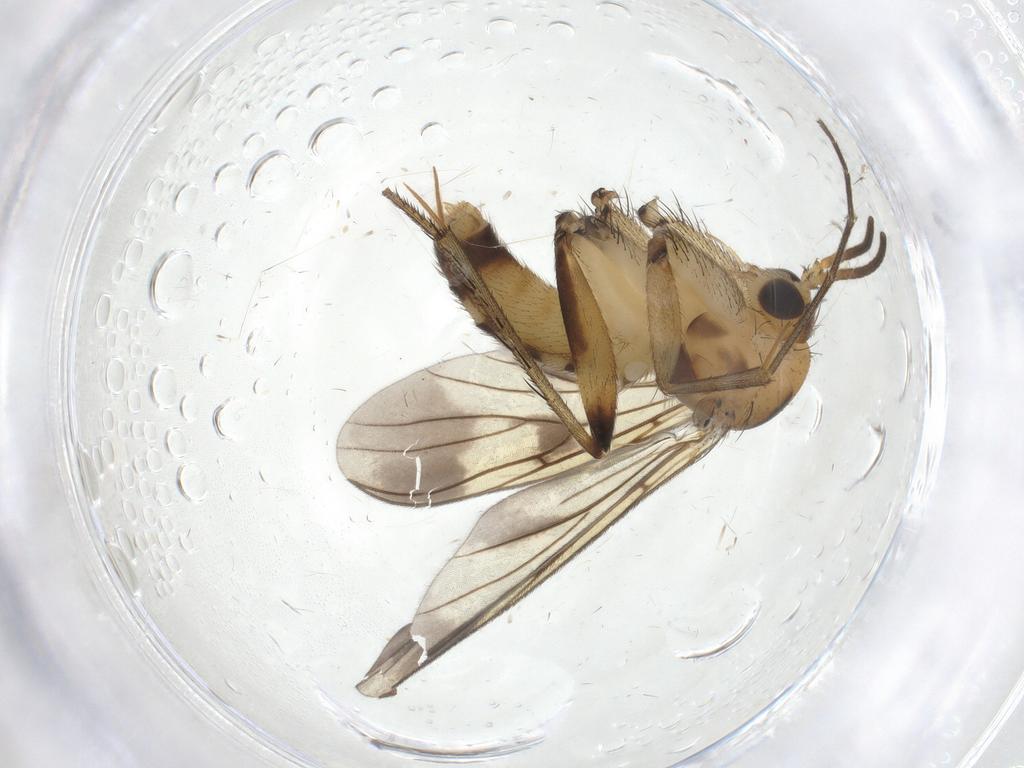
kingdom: Animalia
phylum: Arthropoda
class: Insecta
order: Diptera
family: Mycetophilidae
